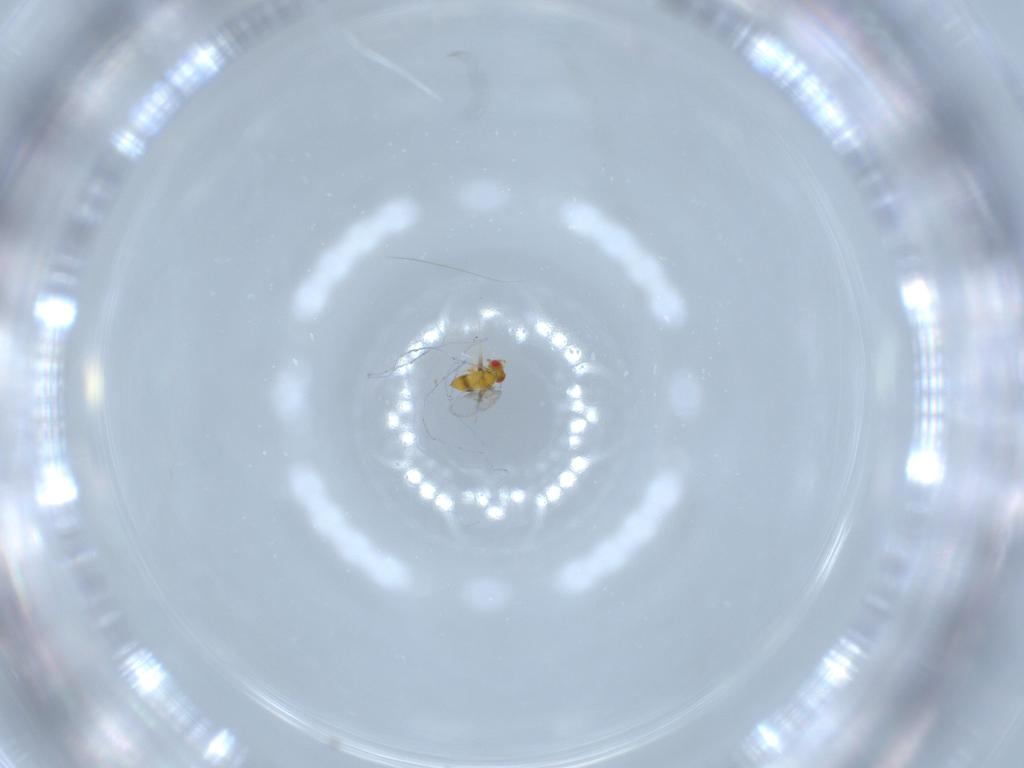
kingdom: Animalia
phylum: Arthropoda
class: Insecta
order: Hymenoptera
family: Trichogrammatidae
